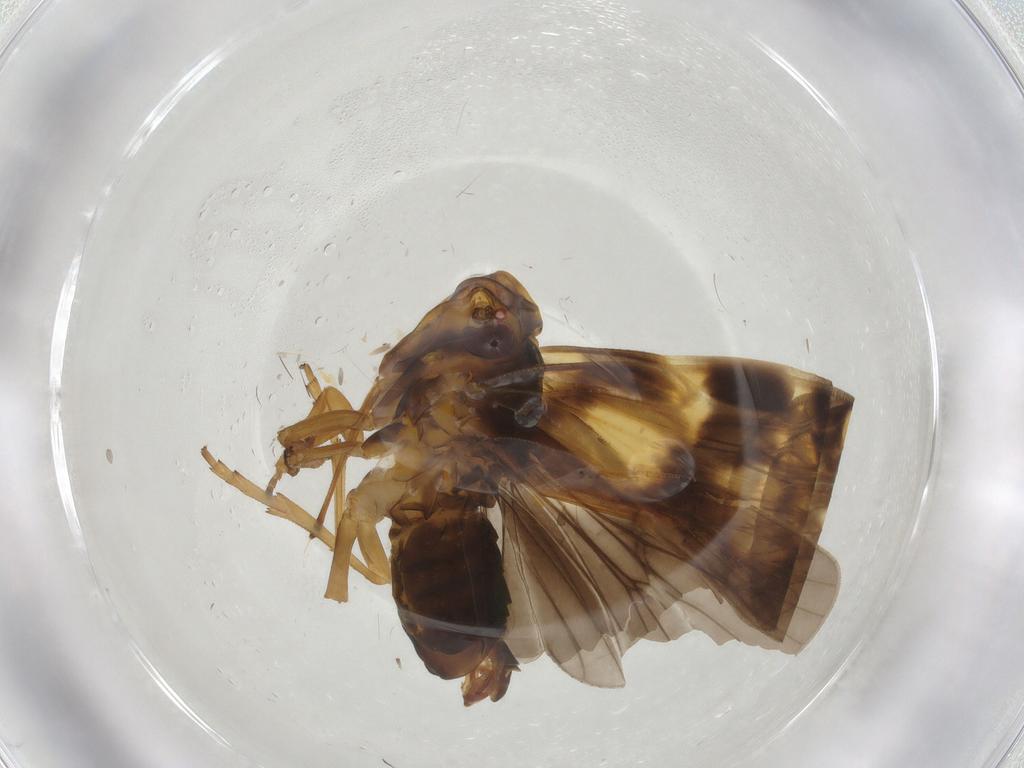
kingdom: Animalia
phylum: Arthropoda
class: Insecta
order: Hemiptera
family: Cixiidae
